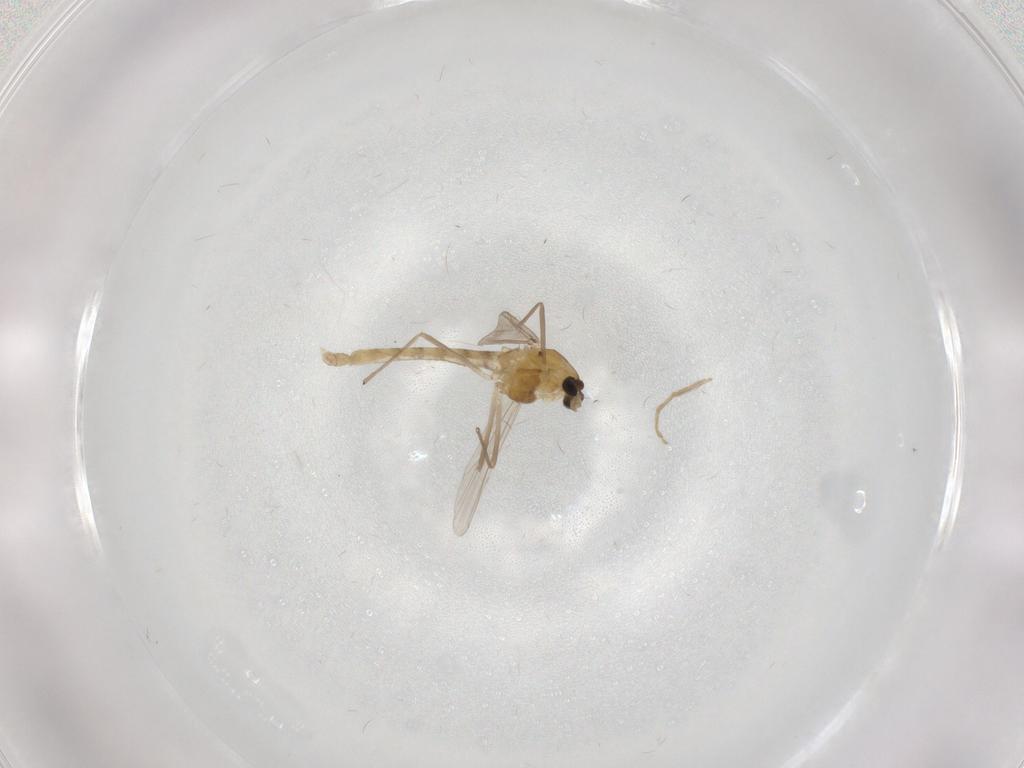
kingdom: Animalia
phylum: Arthropoda
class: Insecta
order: Diptera
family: Chironomidae
